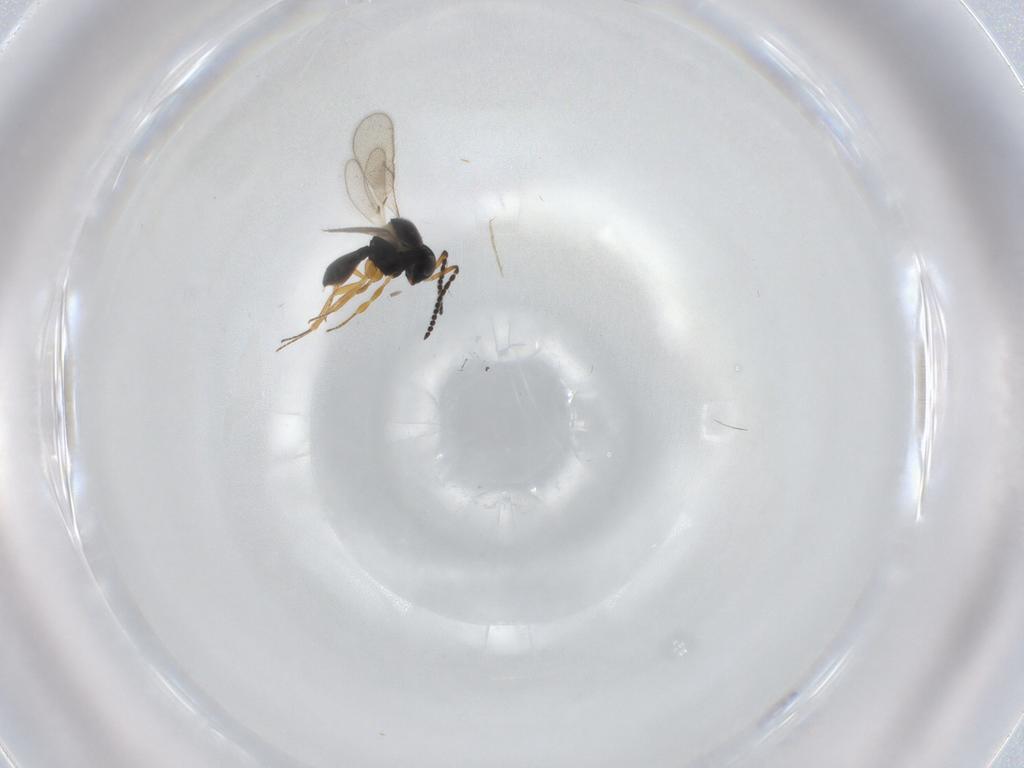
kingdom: Animalia
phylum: Arthropoda
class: Insecta
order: Hymenoptera
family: Scelionidae
